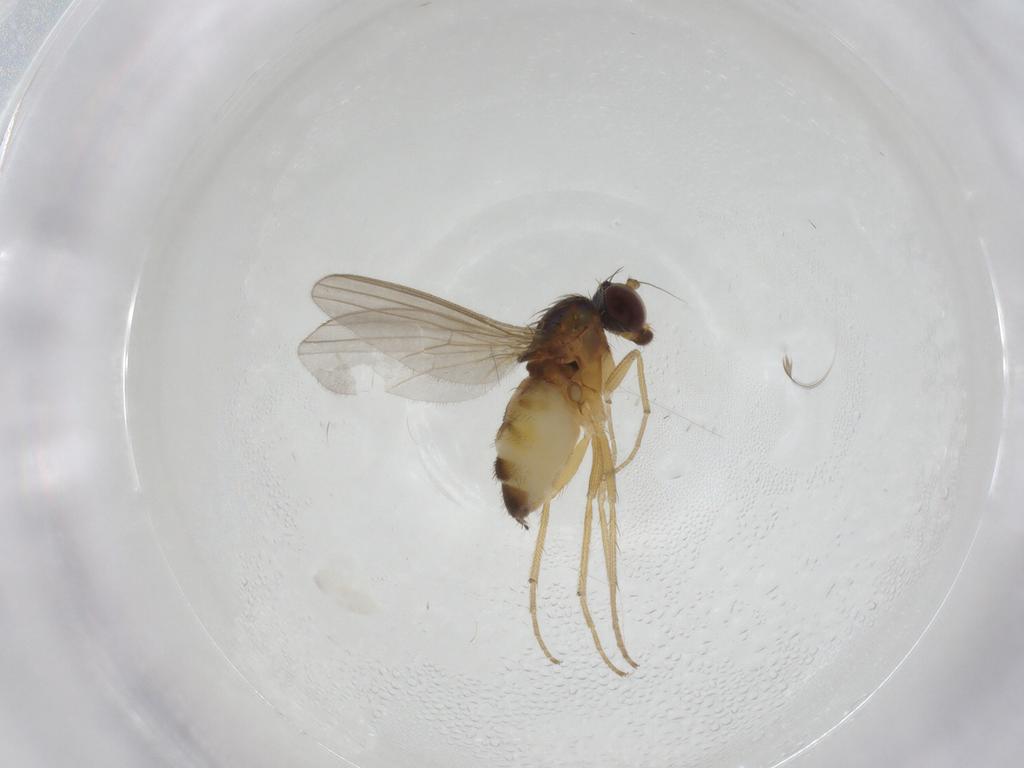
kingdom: Animalia
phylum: Arthropoda
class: Insecta
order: Diptera
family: Dolichopodidae
